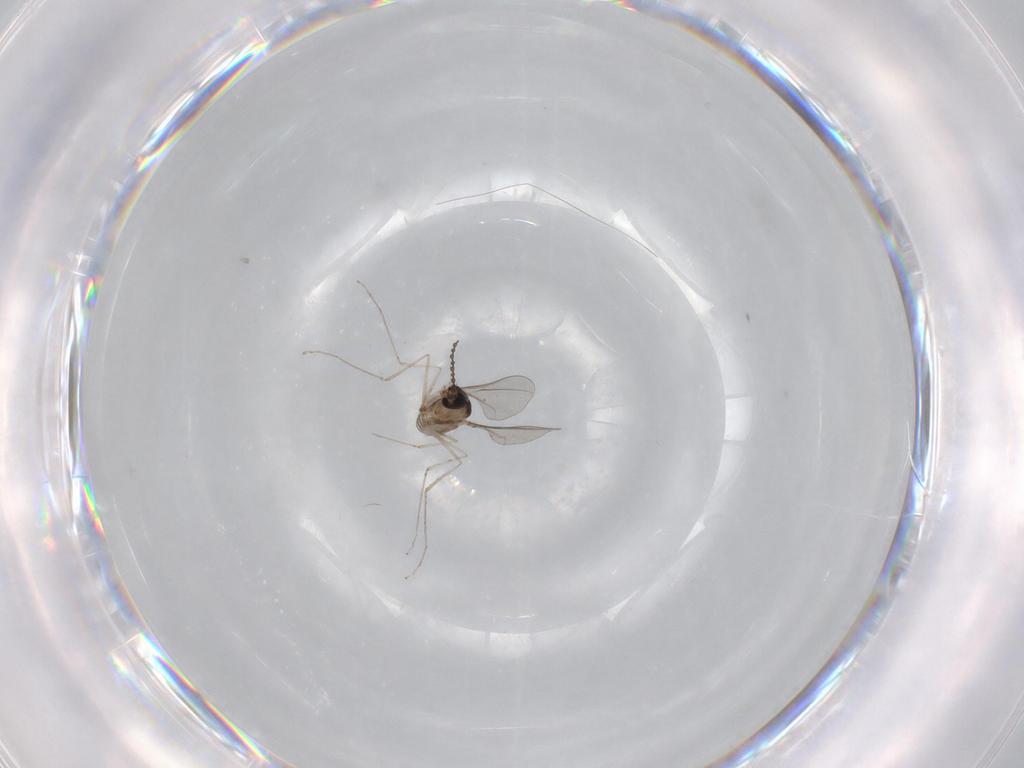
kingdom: Animalia
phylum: Arthropoda
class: Insecta
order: Diptera
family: Cecidomyiidae
